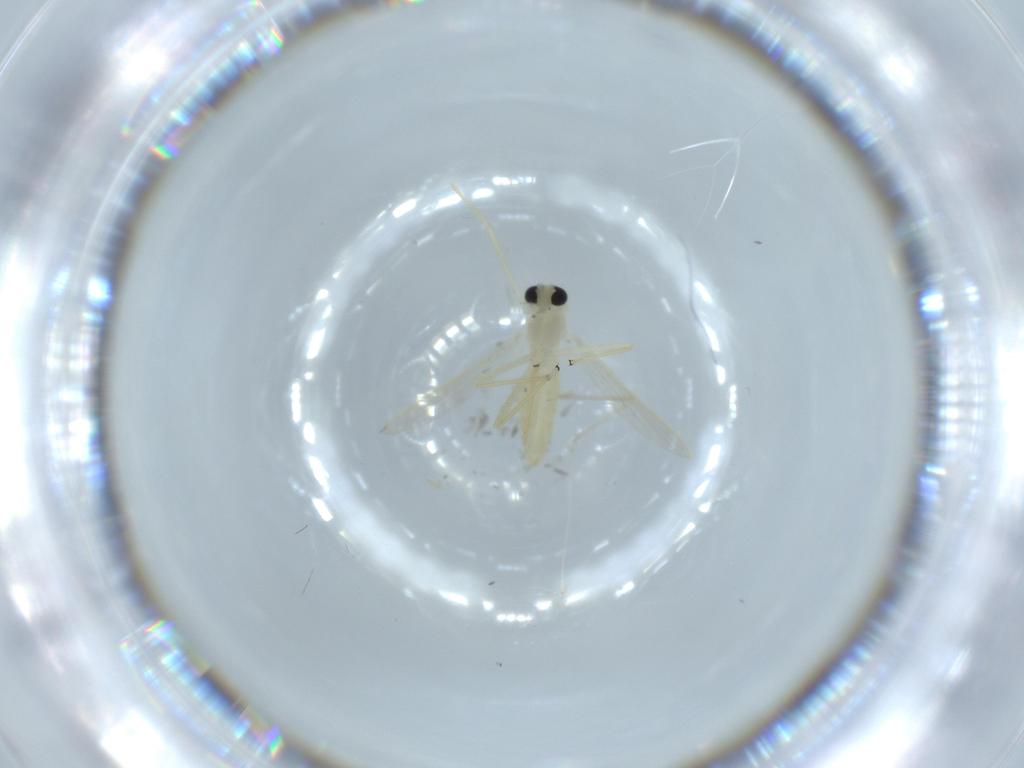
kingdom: Animalia
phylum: Arthropoda
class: Insecta
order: Diptera
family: Chironomidae
